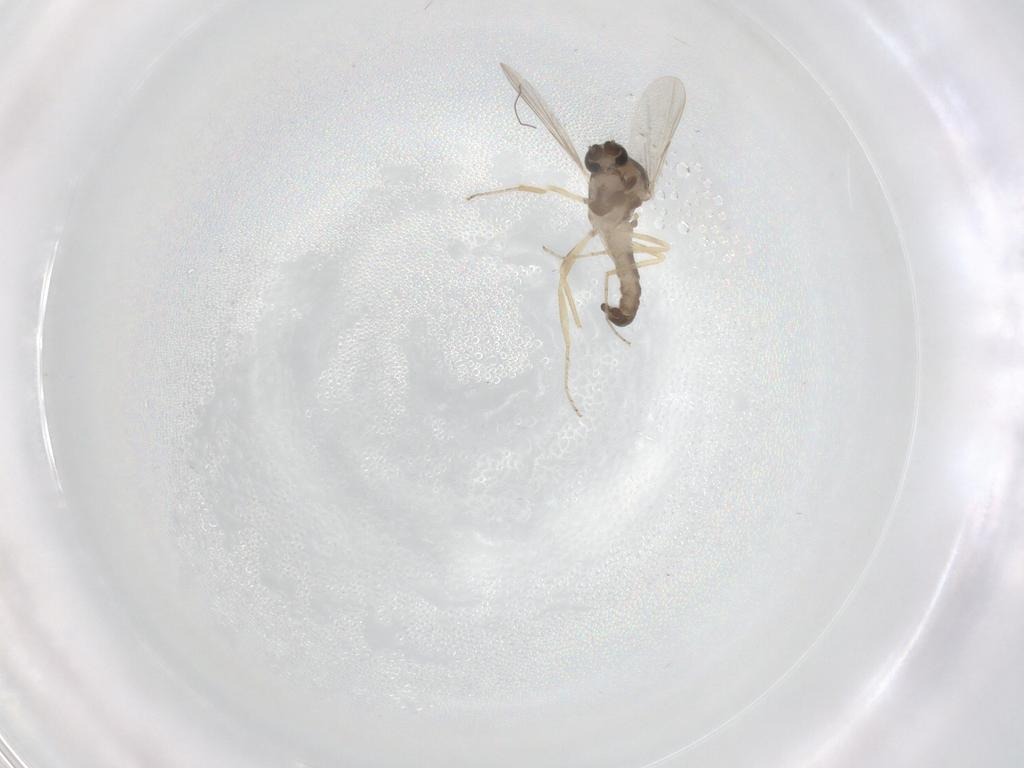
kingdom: Animalia
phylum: Arthropoda
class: Insecta
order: Diptera
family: Ceratopogonidae
